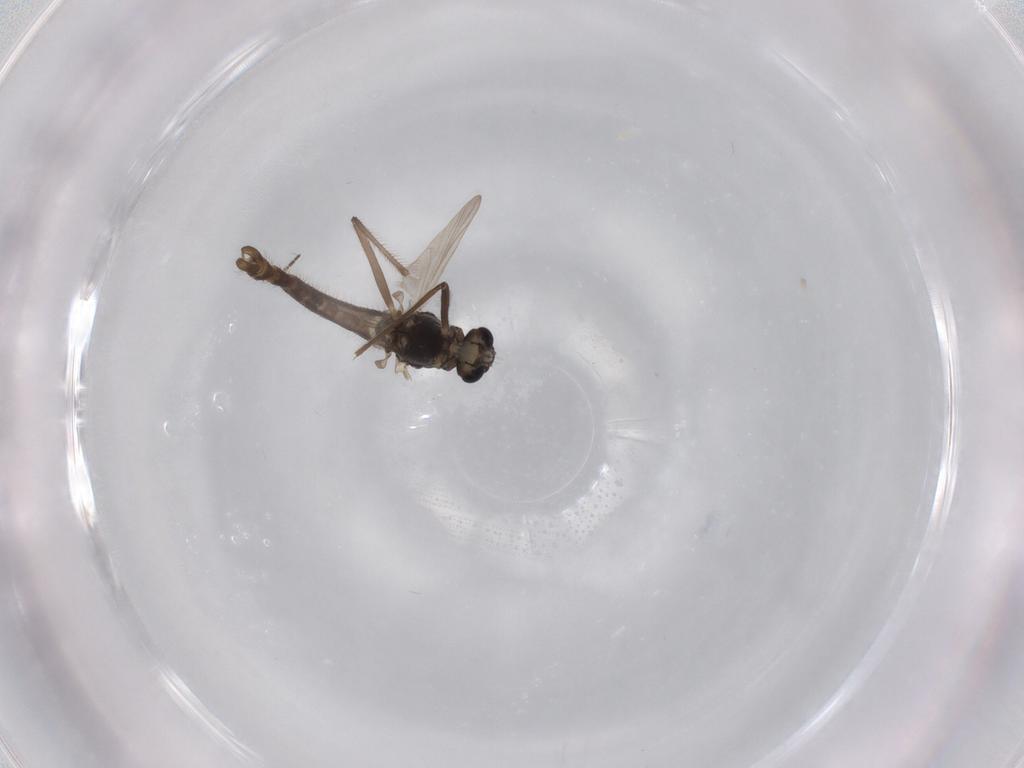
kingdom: Animalia
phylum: Arthropoda
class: Insecta
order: Diptera
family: Chironomidae
